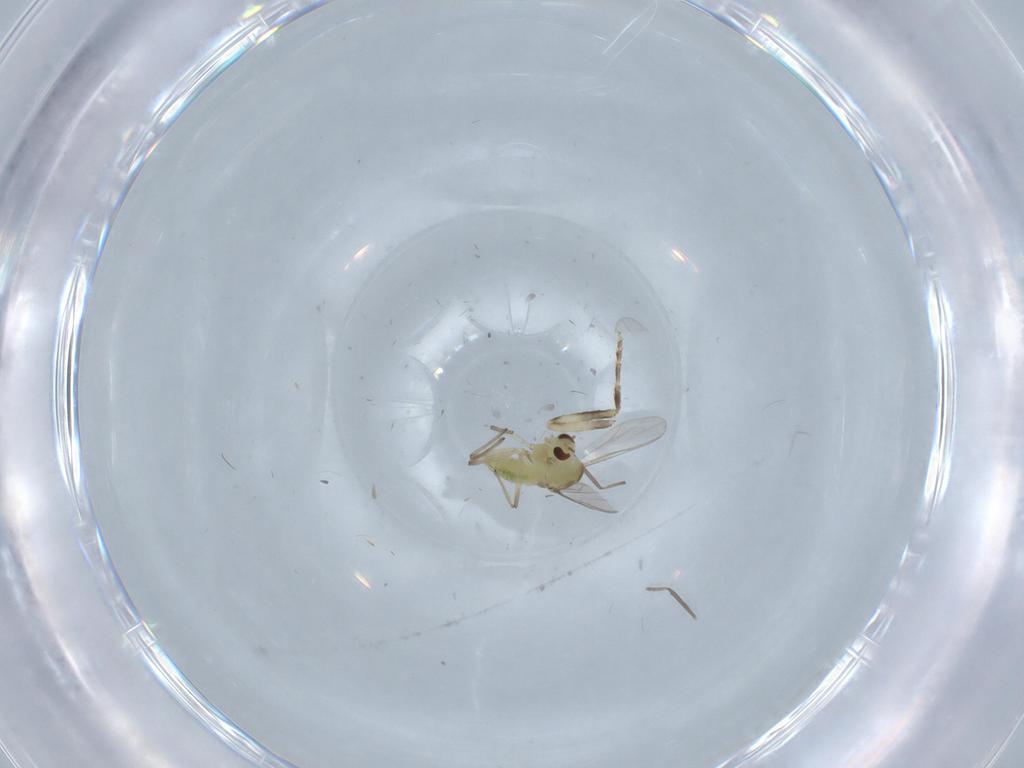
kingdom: Animalia
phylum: Arthropoda
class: Insecta
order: Diptera
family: Chironomidae
